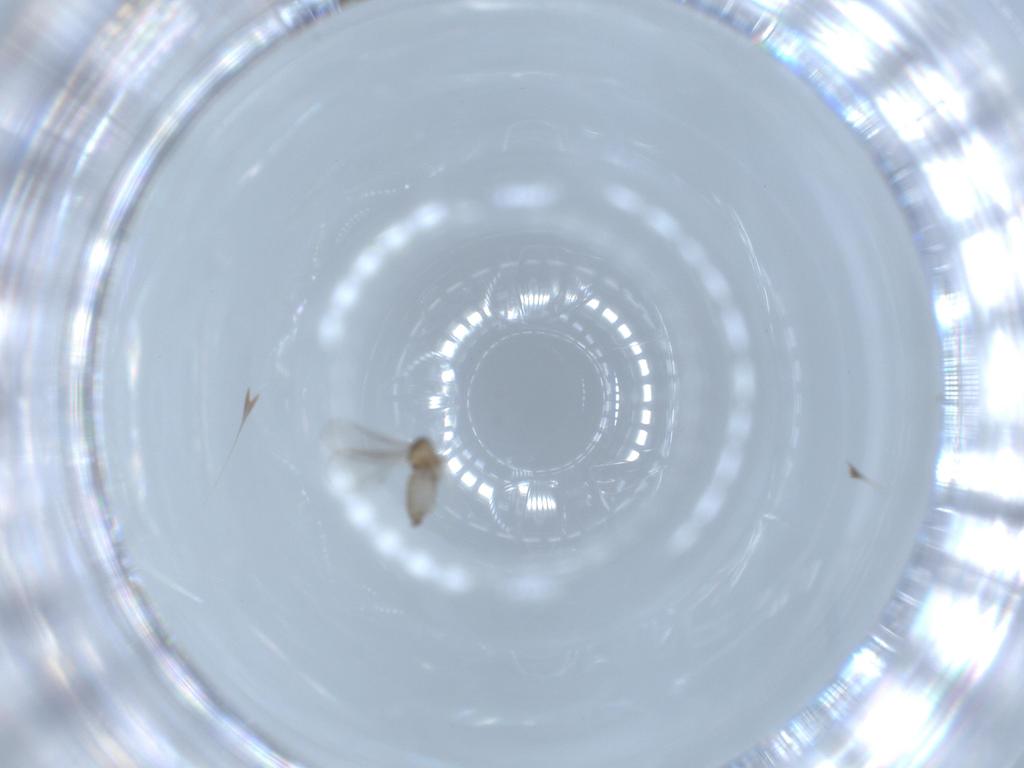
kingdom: Animalia
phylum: Arthropoda
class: Insecta
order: Diptera
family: Cecidomyiidae
